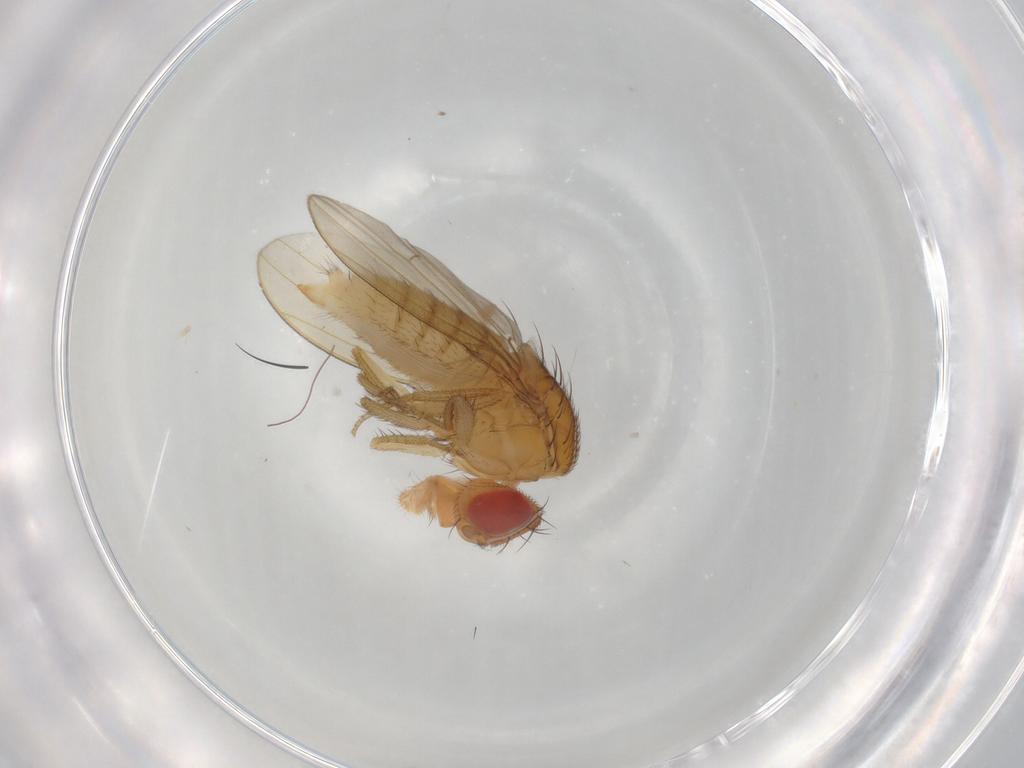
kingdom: Animalia
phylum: Arthropoda
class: Insecta
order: Diptera
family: Drosophilidae
